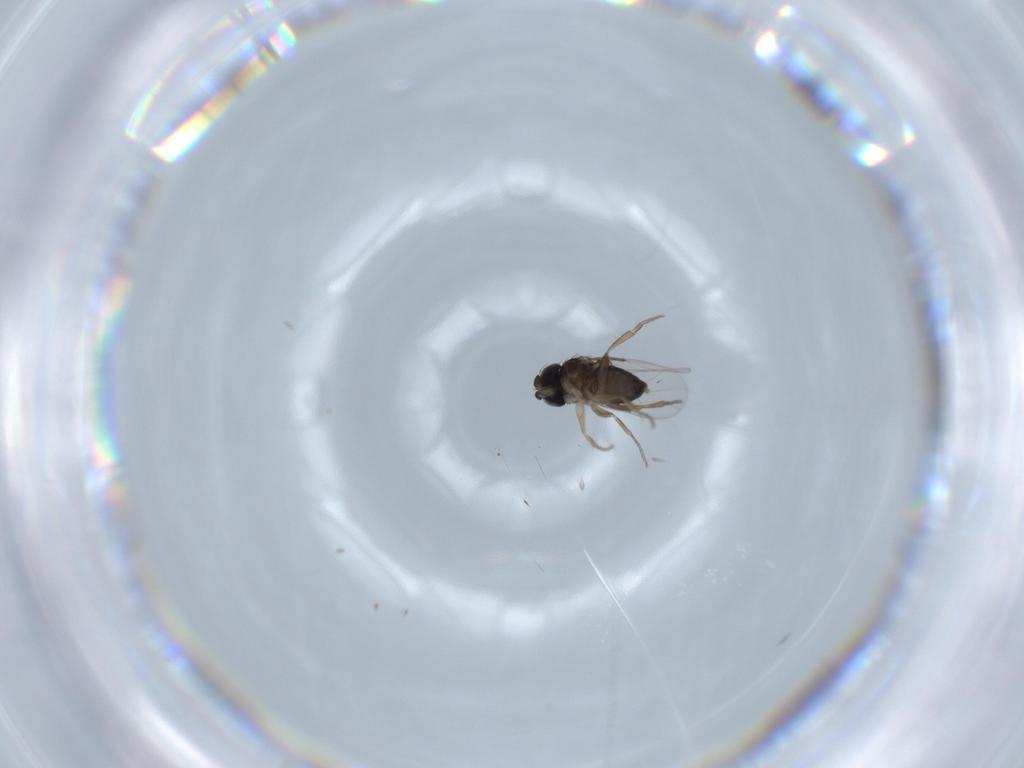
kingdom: Animalia
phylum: Arthropoda
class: Insecta
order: Diptera
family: Phoridae
